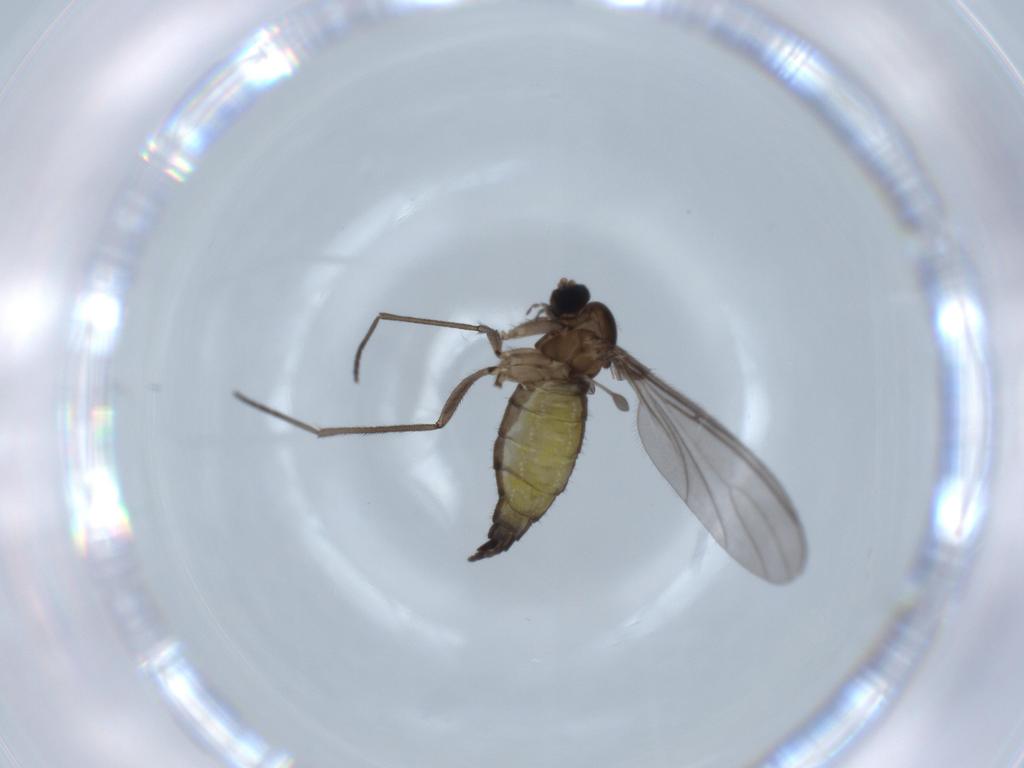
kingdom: Animalia
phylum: Arthropoda
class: Insecta
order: Diptera
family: Sciaridae
